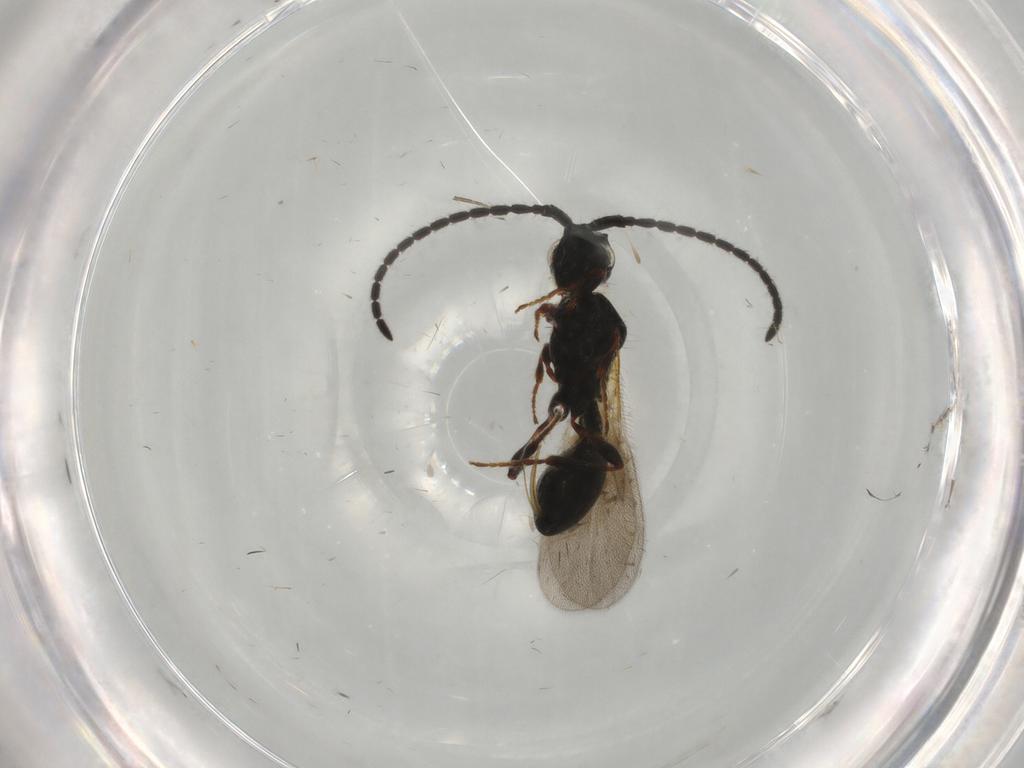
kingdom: Animalia
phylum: Arthropoda
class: Insecta
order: Hymenoptera
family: Diapriidae
